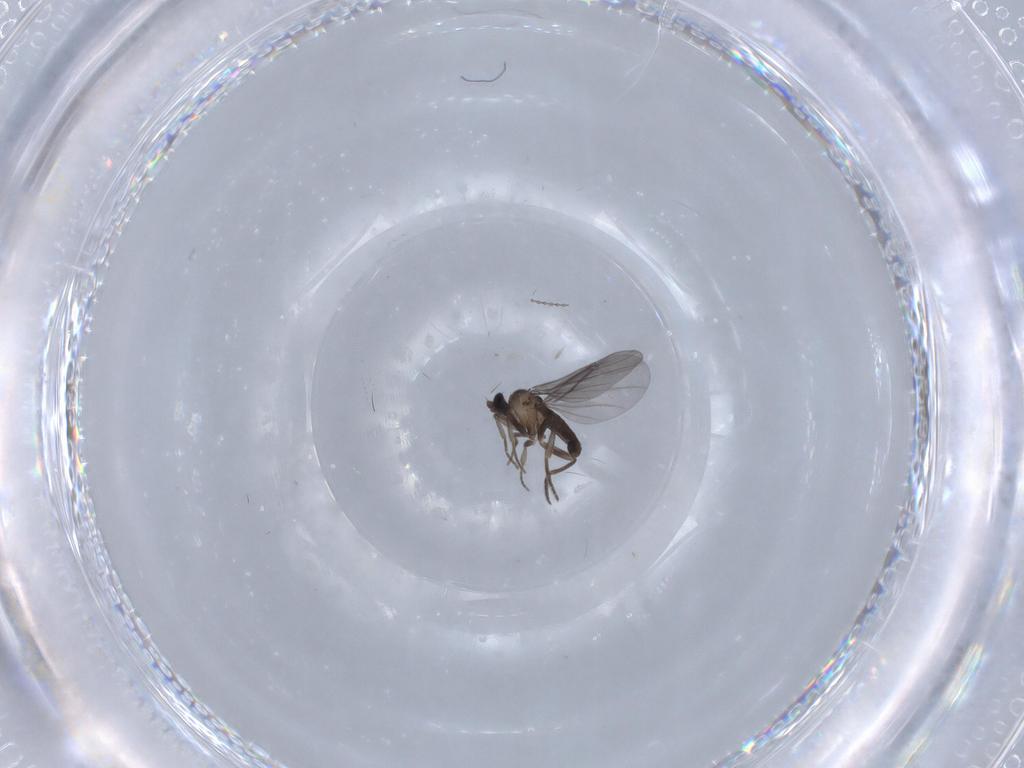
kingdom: Animalia
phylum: Arthropoda
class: Insecta
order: Diptera
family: Phoridae
